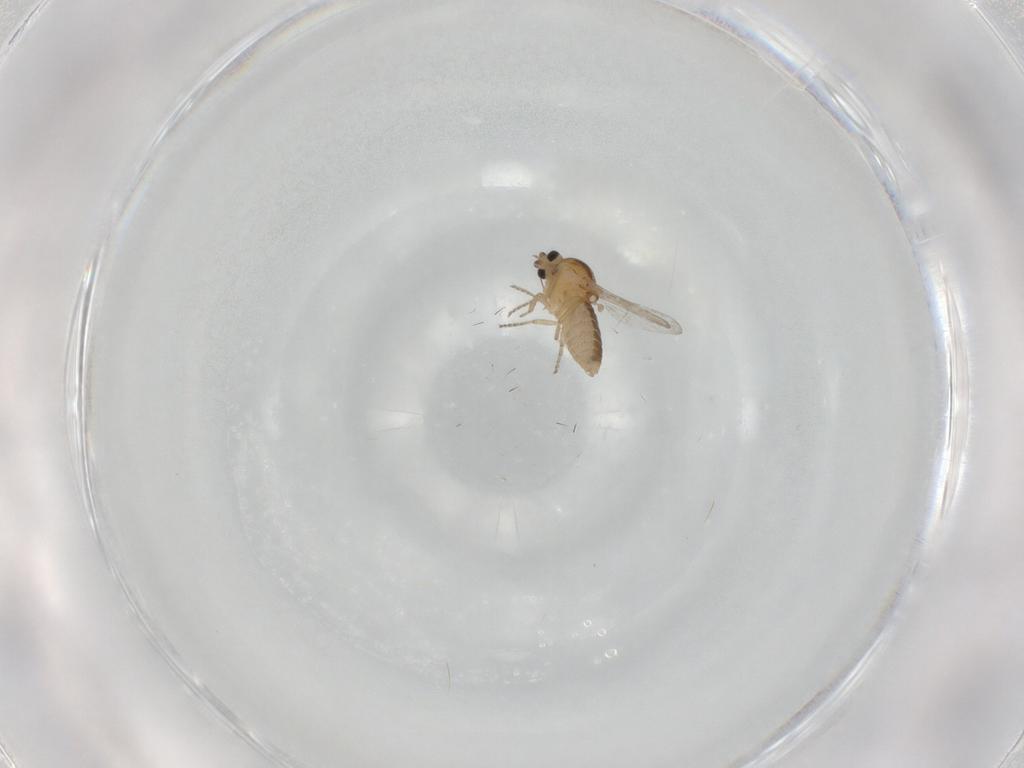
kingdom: Animalia
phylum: Arthropoda
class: Insecta
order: Diptera
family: Ceratopogonidae
